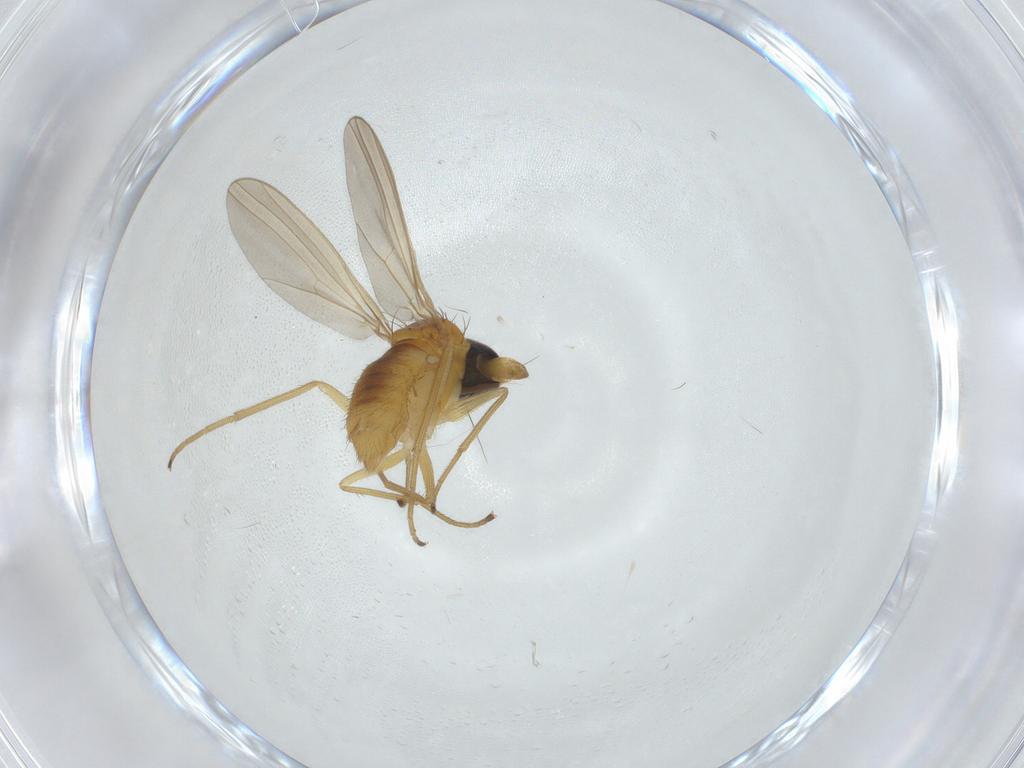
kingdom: Animalia
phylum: Arthropoda
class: Insecta
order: Diptera
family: Dolichopodidae
